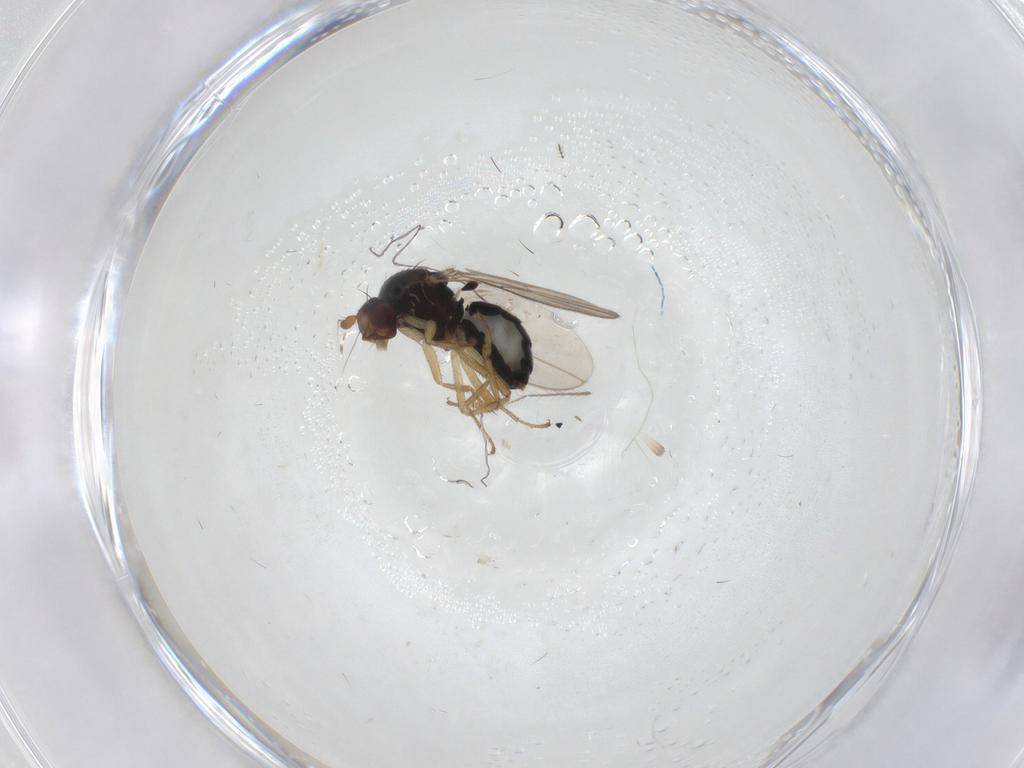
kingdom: Animalia
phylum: Arthropoda
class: Insecta
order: Diptera
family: Sphaeroceridae
